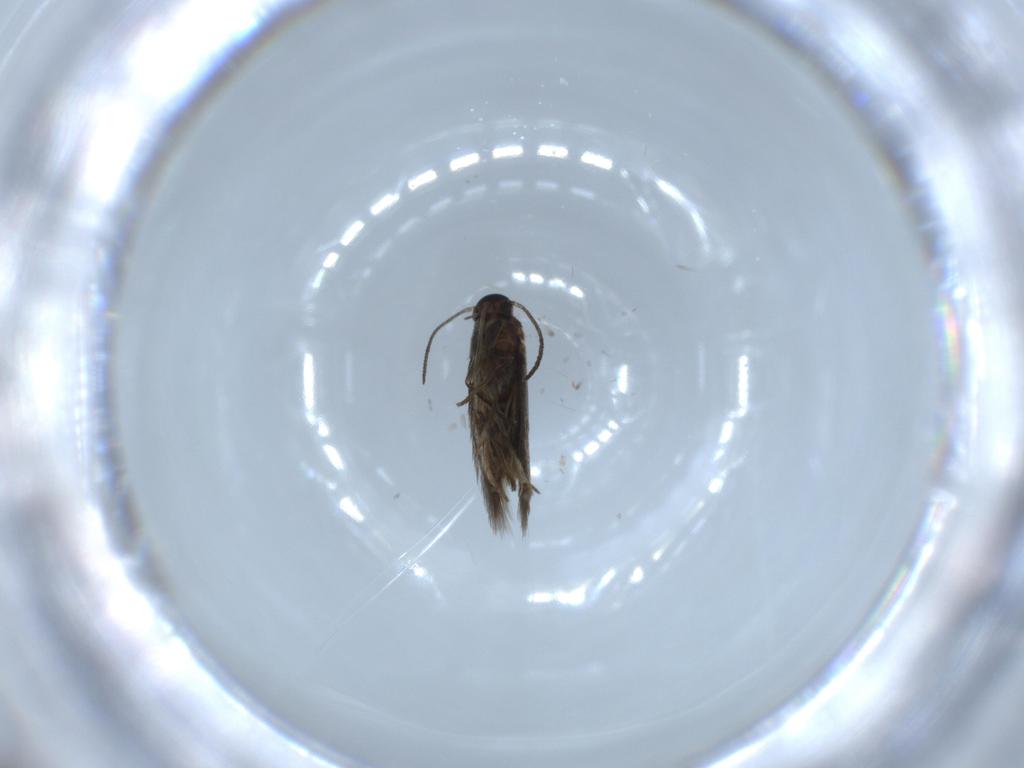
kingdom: Animalia
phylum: Arthropoda
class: Insecta
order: Lepidoptera
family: Heliozelidae
